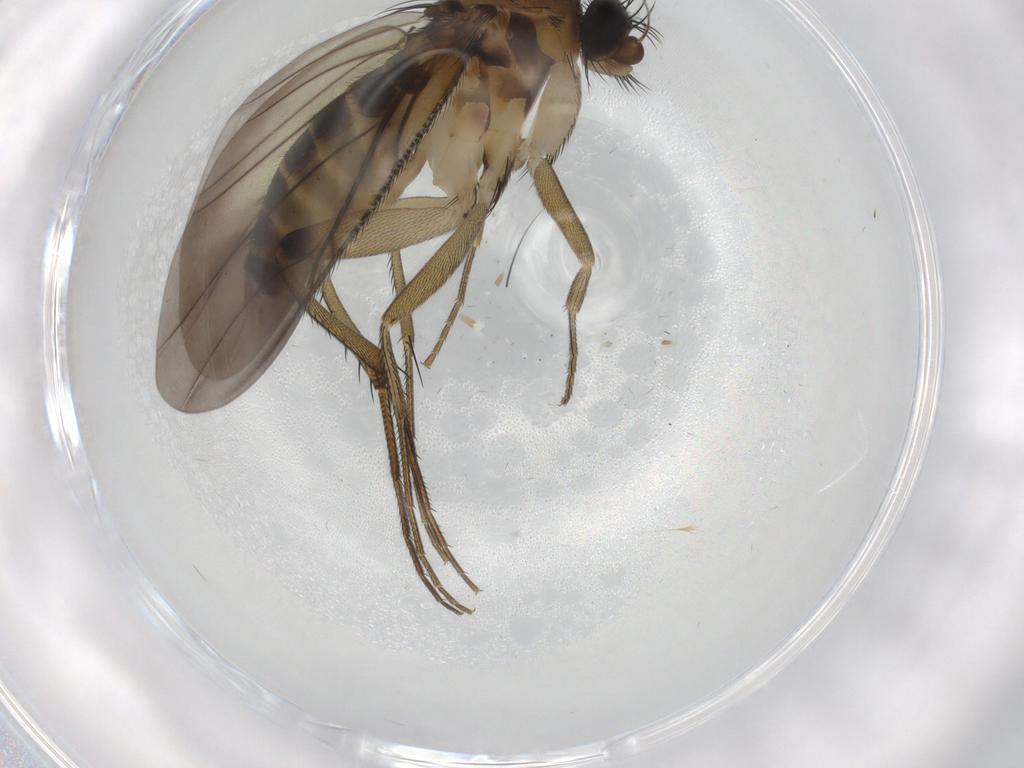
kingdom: Animalia
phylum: Arthropoda
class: Insecta
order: Diptera
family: Phoridae
